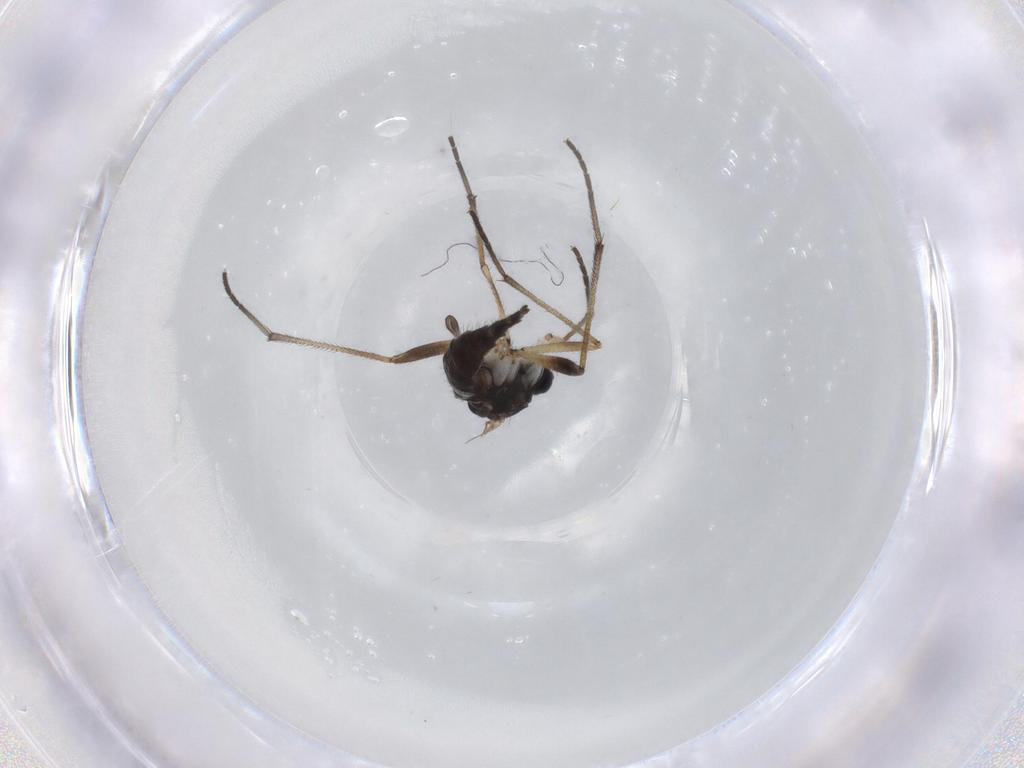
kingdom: Animalia
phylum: Arthropoda
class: Insecta
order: Diptera
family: Sciaridae
